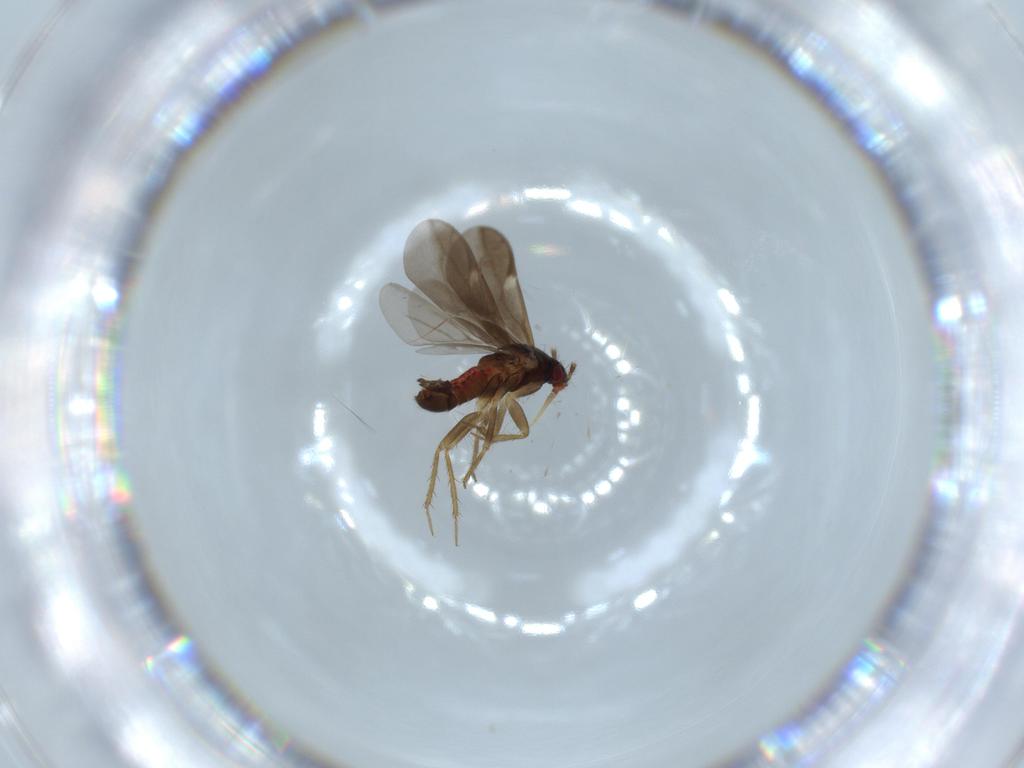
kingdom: Animalia
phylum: Arthropoda
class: Insecta
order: Hemiptera
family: Ceratocombidae
